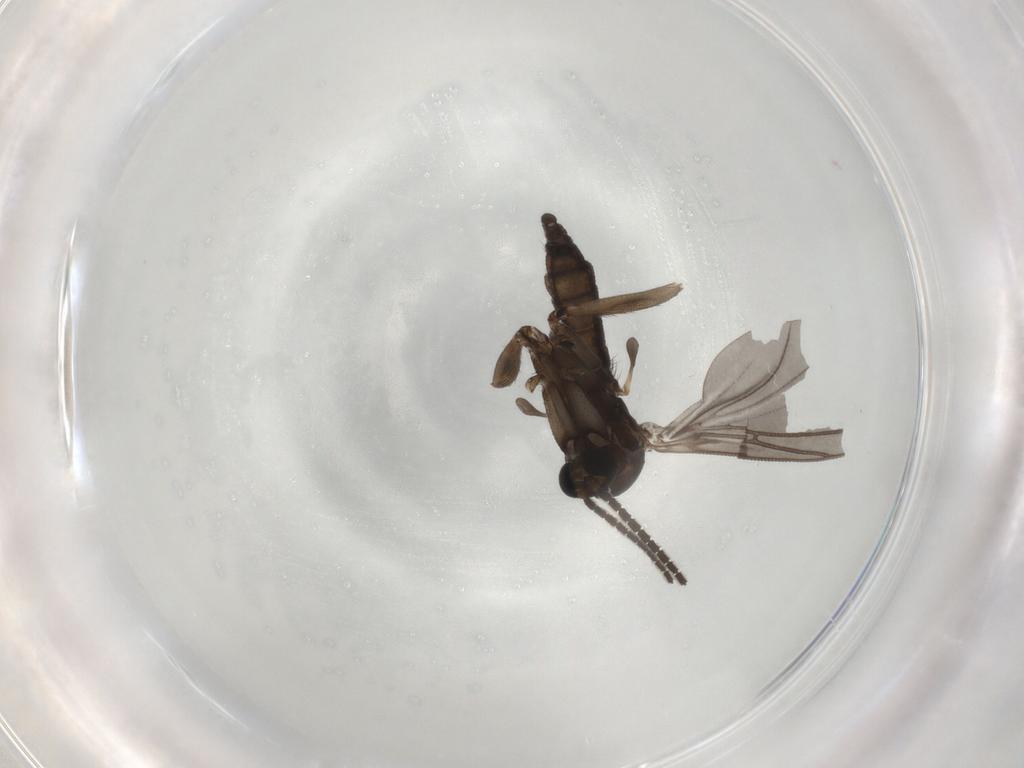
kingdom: Animalia
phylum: Arthropoda
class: Insecta
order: Diptera
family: Sciaridae
